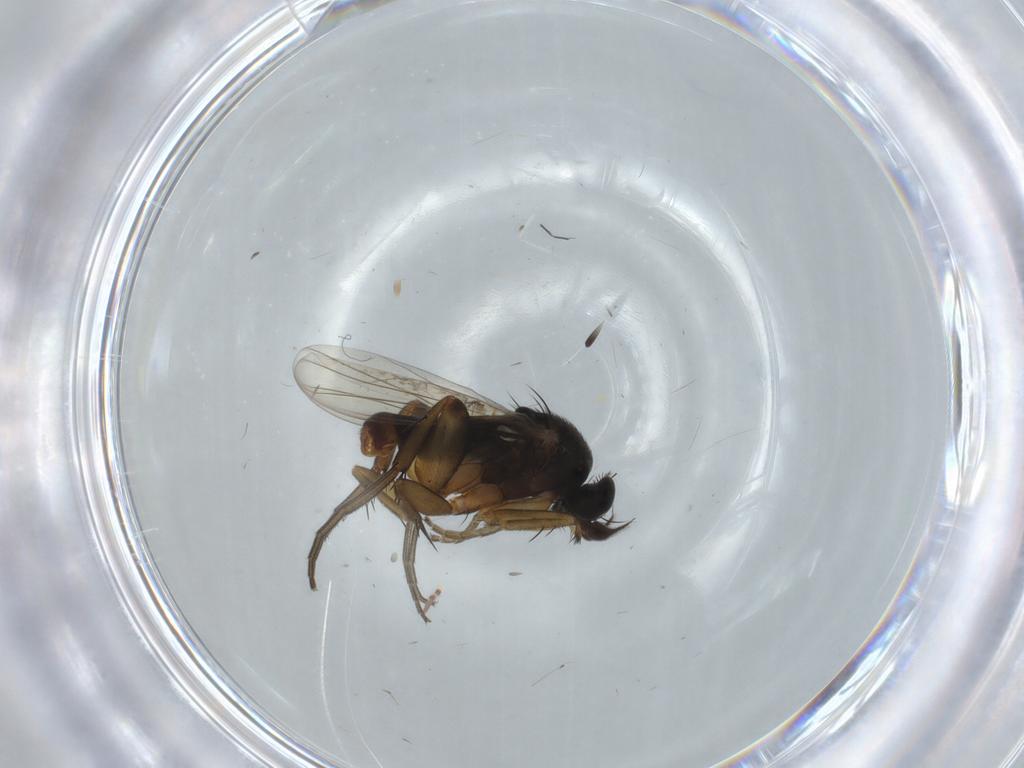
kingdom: Animalia
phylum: Arthropoda
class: Insecta
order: Diptera
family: Phoridae
